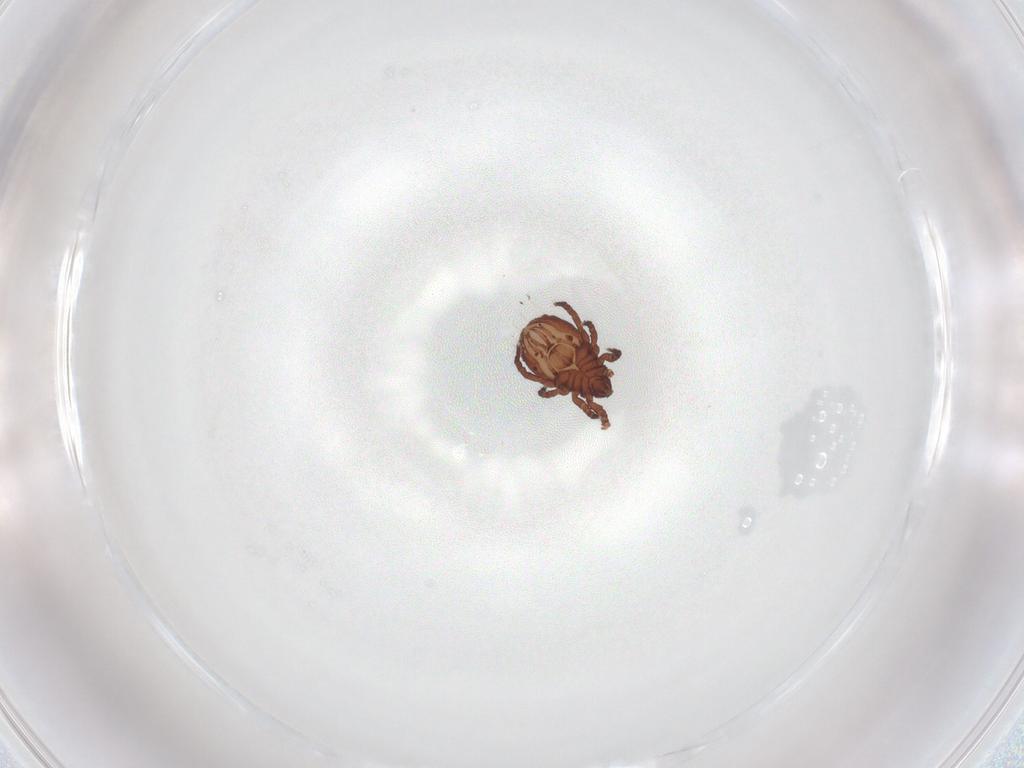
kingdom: Animalia
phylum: Arthropoda
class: Arachnida
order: Sarcoptiformes
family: Nothridae
